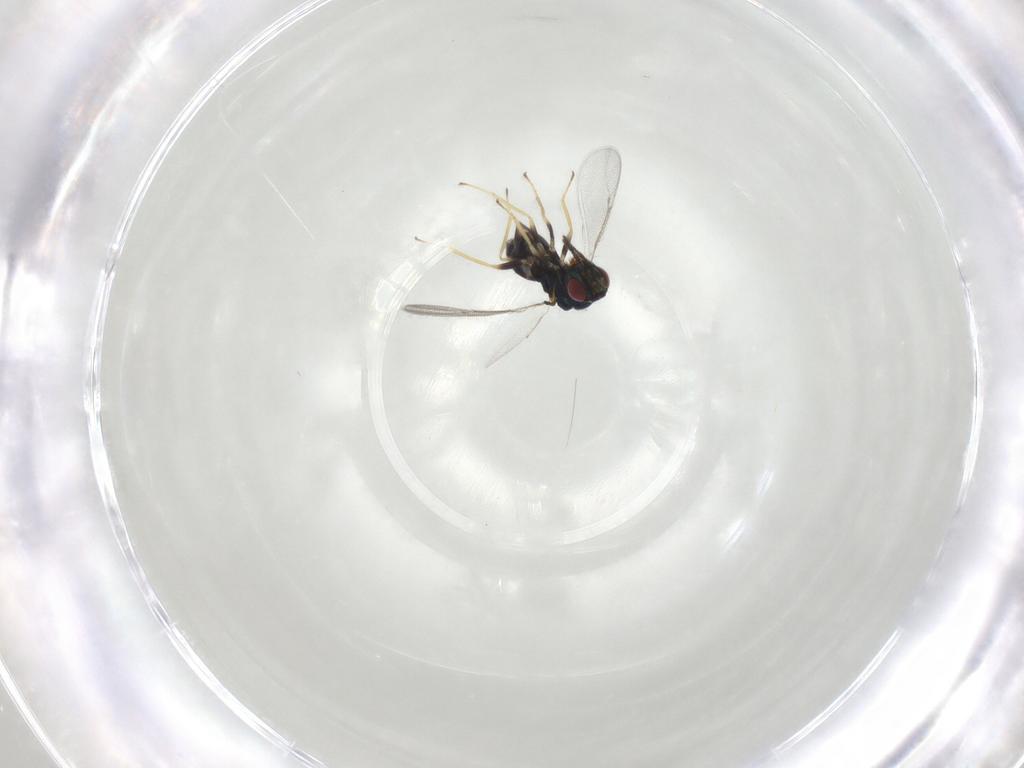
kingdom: Animalia
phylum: Arthropoda
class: Insecta
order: Hymenoptera
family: Eulophidae
